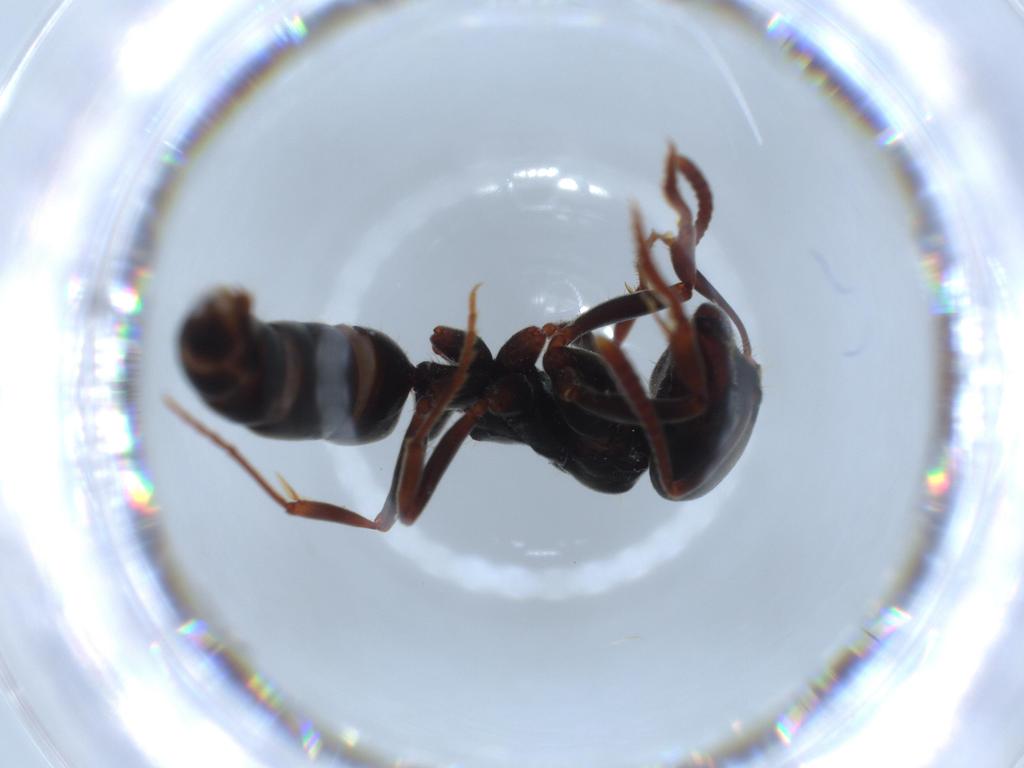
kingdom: Animalia
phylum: Arthropoda
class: Insecta
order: Hymenoptera
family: Formicidae
